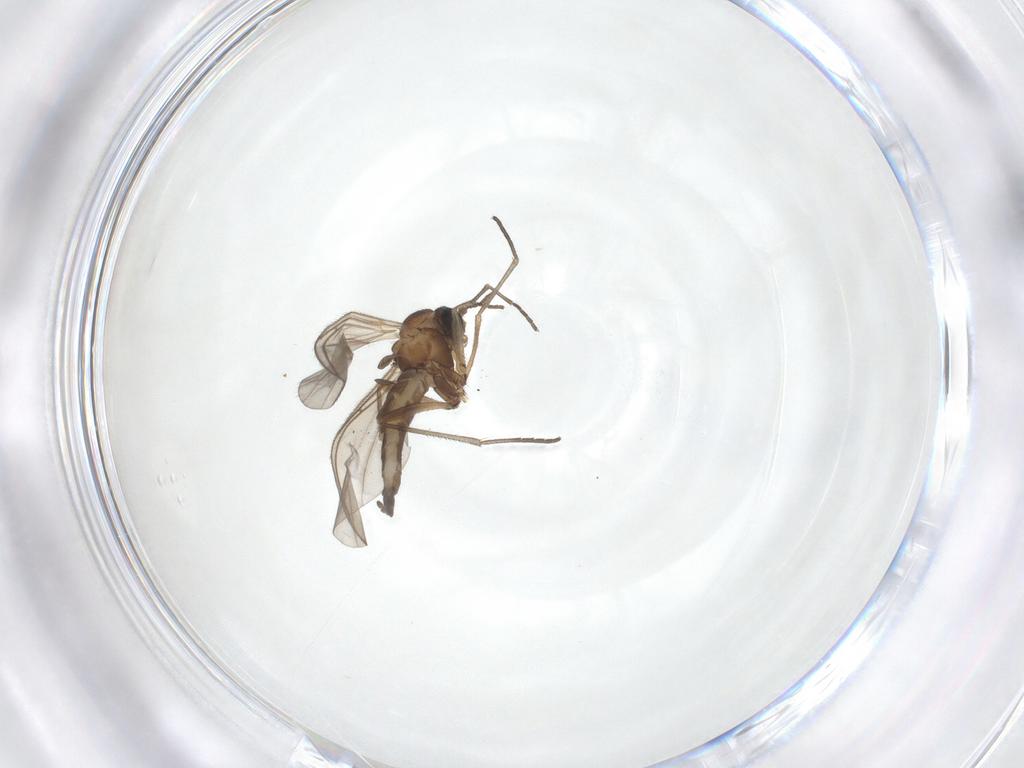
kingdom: Animalia
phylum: Arthropoda
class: Insecta
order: Diptera
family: Sciaridae
